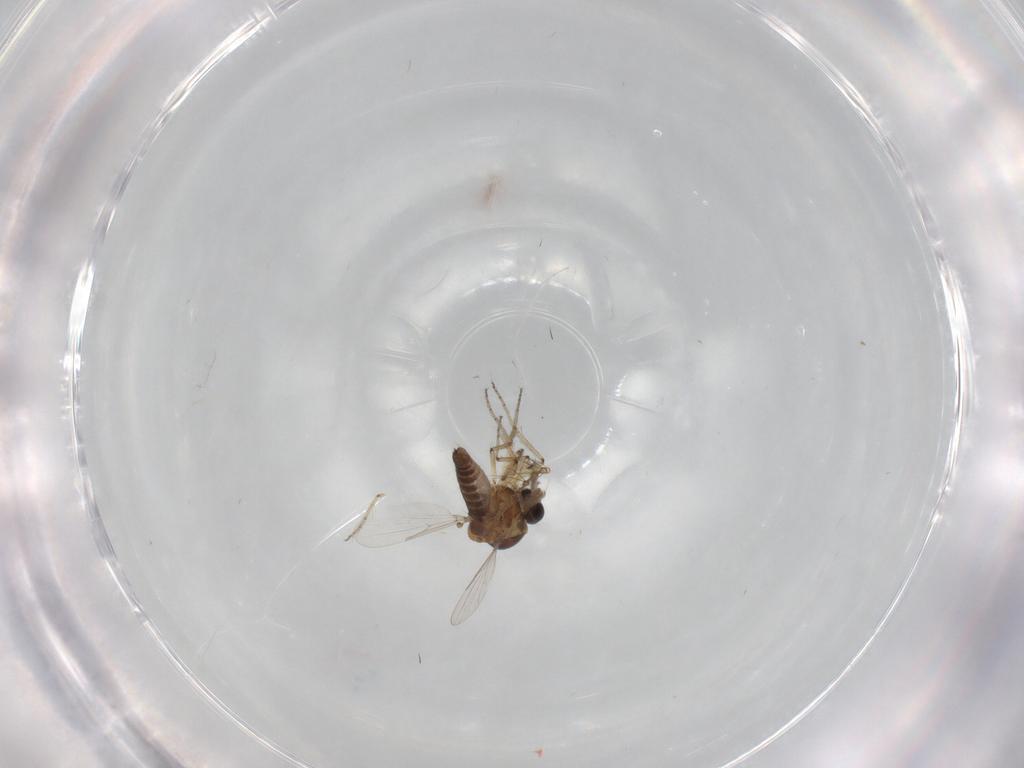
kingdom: Animalia
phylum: Arthropoda
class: Insecta
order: Diptera
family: Ceratopogonidae
